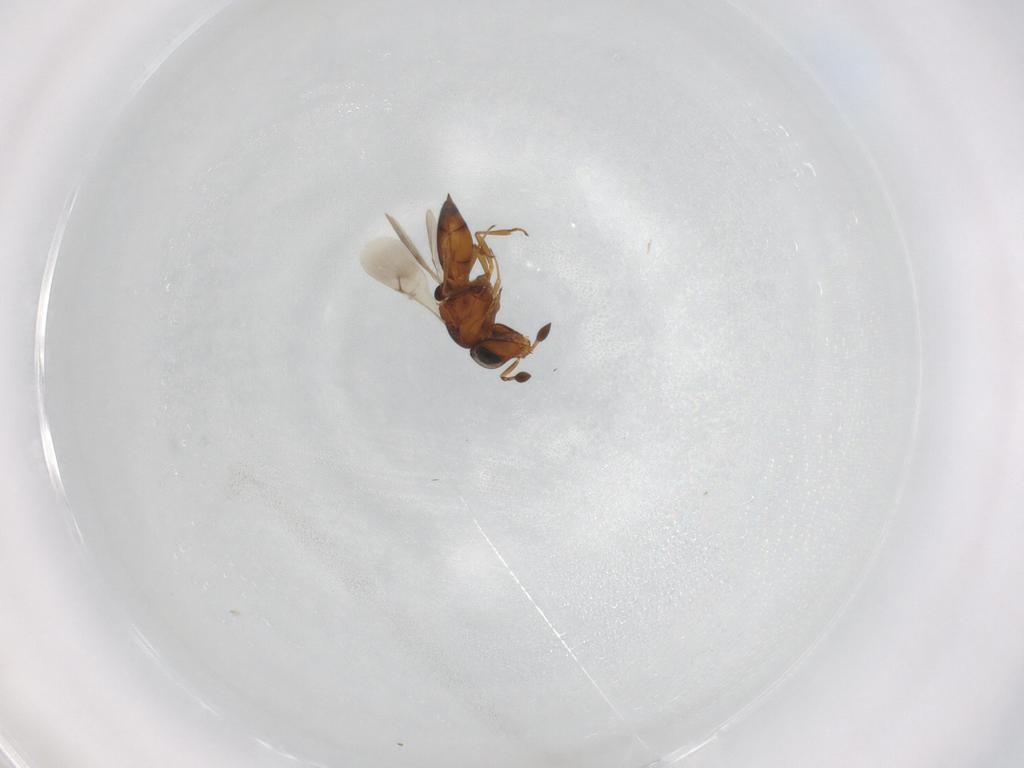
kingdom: Animalia
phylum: Arthropoda
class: Insecta
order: Hymenoptera
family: Scelionidae
